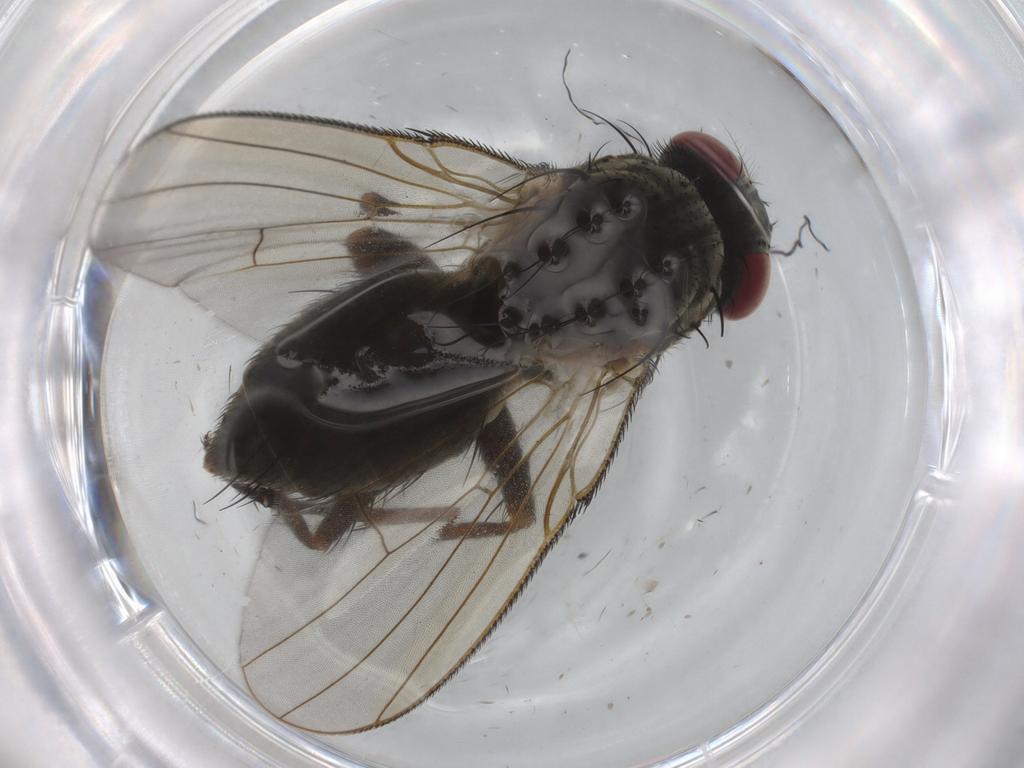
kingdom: Animalia
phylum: Arthropoda
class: Insecta
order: Diptera
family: Muscidae
